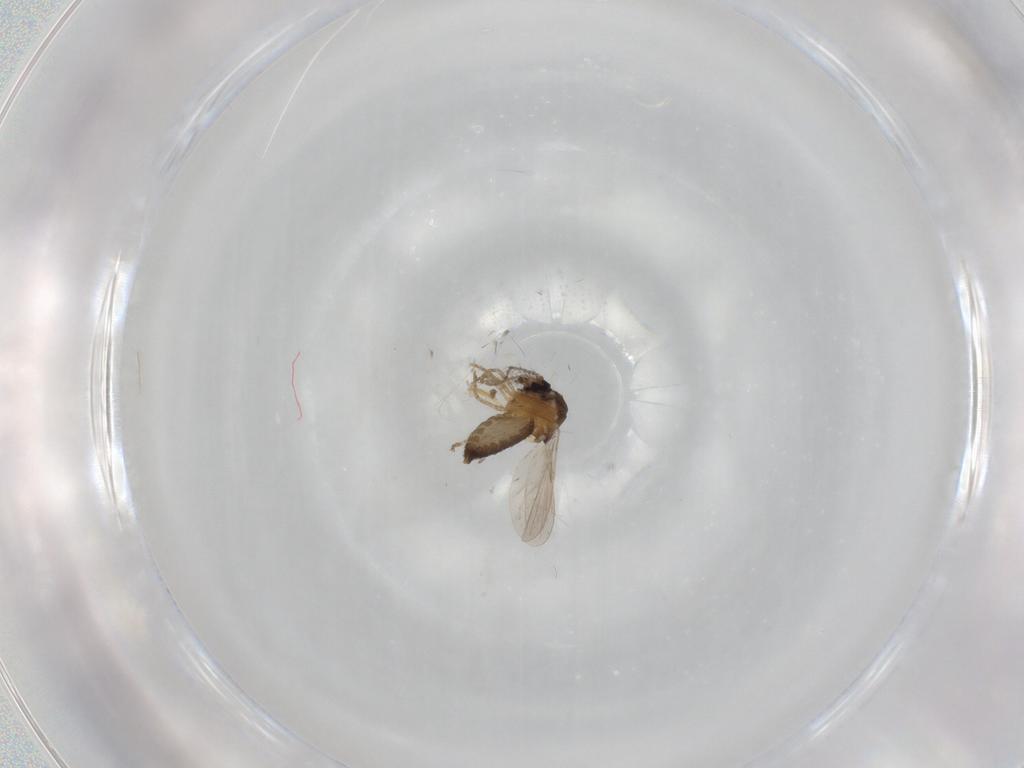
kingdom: Animalia
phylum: Arthropoda
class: Insecta
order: Diptera
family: Ceratopogonidae
